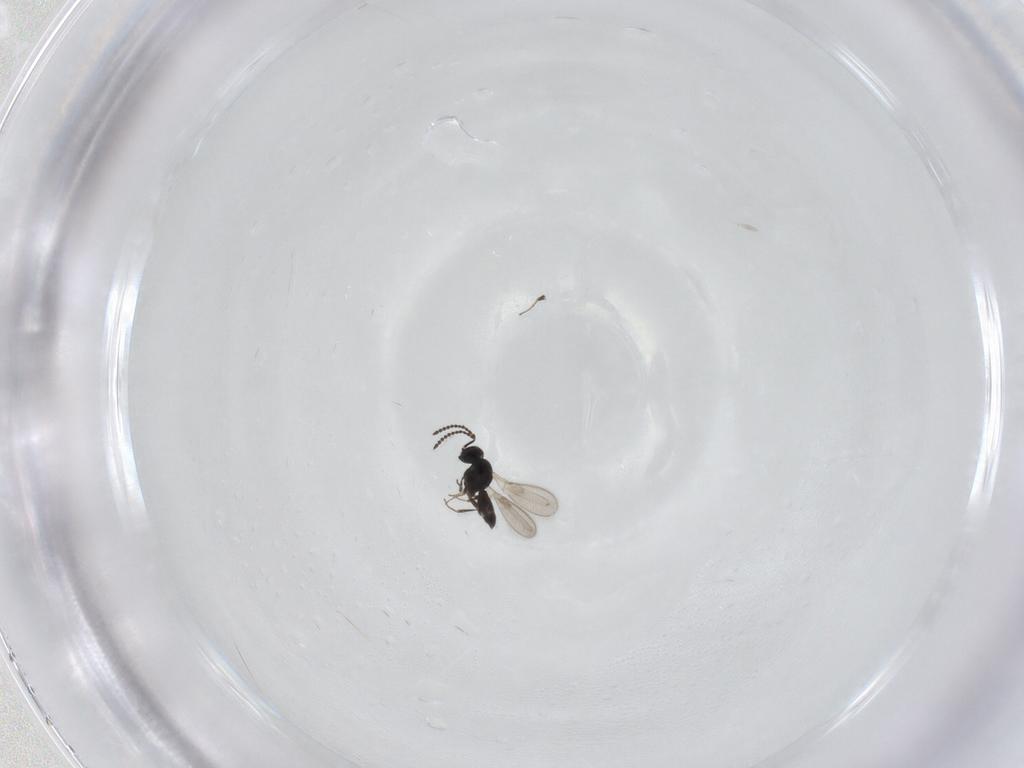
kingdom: Animalia
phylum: Arthropoda
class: Insecta
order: Hymenoptera
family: Scelionidae
